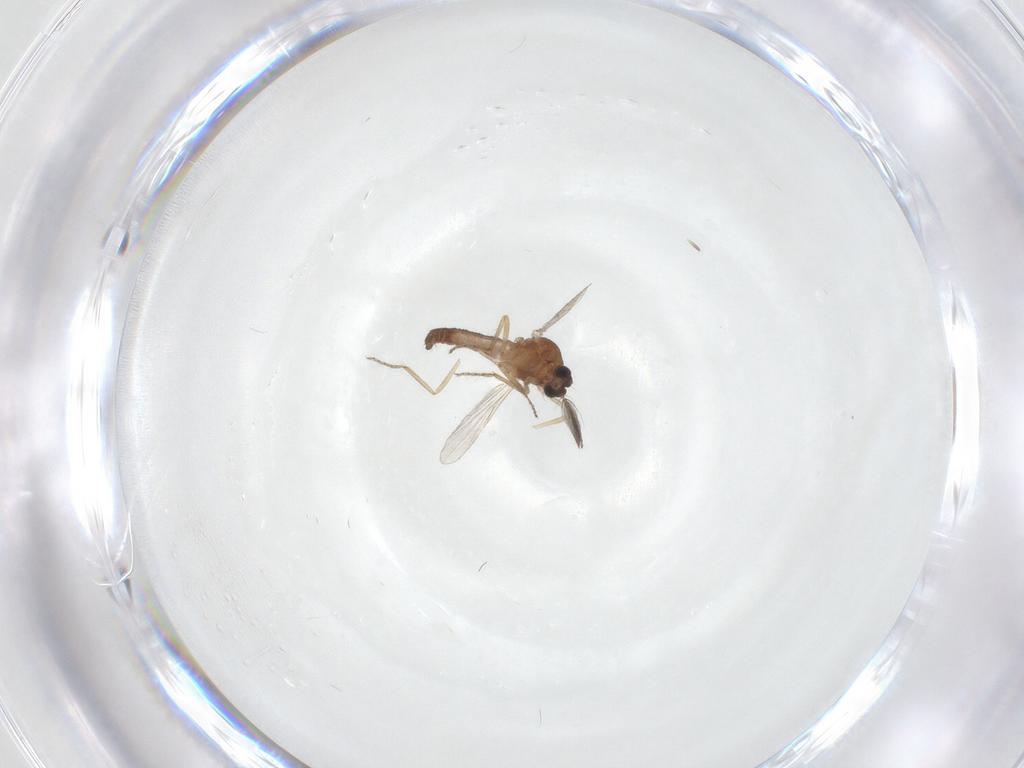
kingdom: Animalia
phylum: Arthropoda
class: Insecta
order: Diptera
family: Ceratopogonidae
